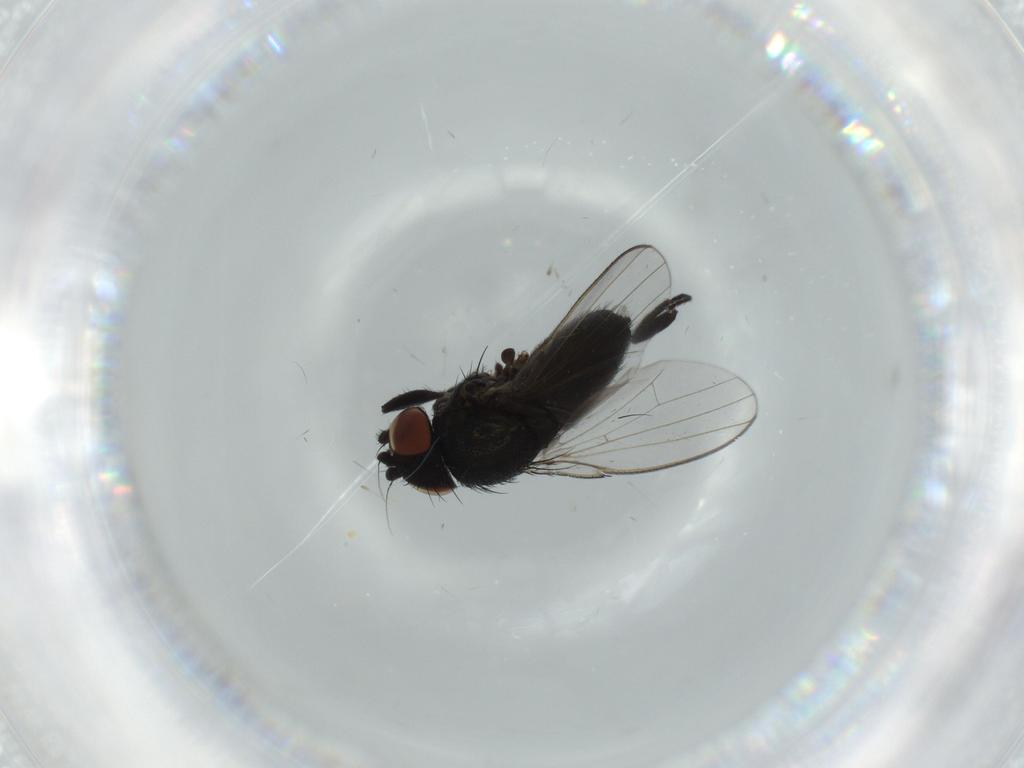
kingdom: Animalia
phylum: Arthropoda
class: Insecta
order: Diptera
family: Milichiidae
